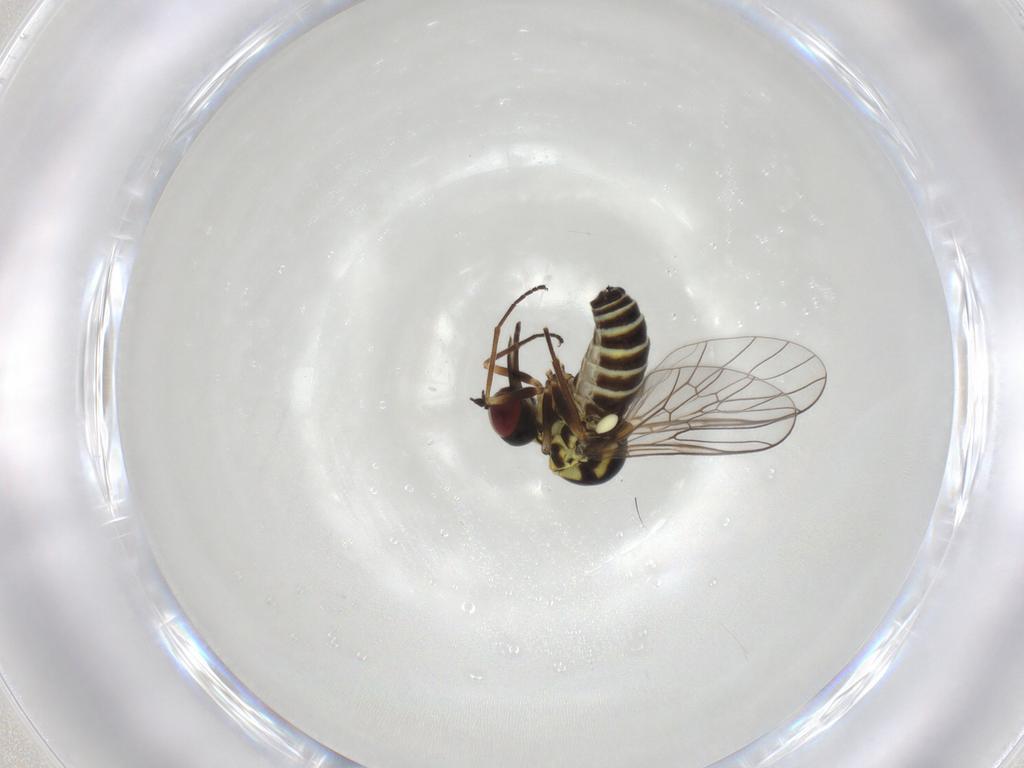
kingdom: Animalia
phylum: Arthropoda
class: Insecta
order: Diptera
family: Bombyliidae
